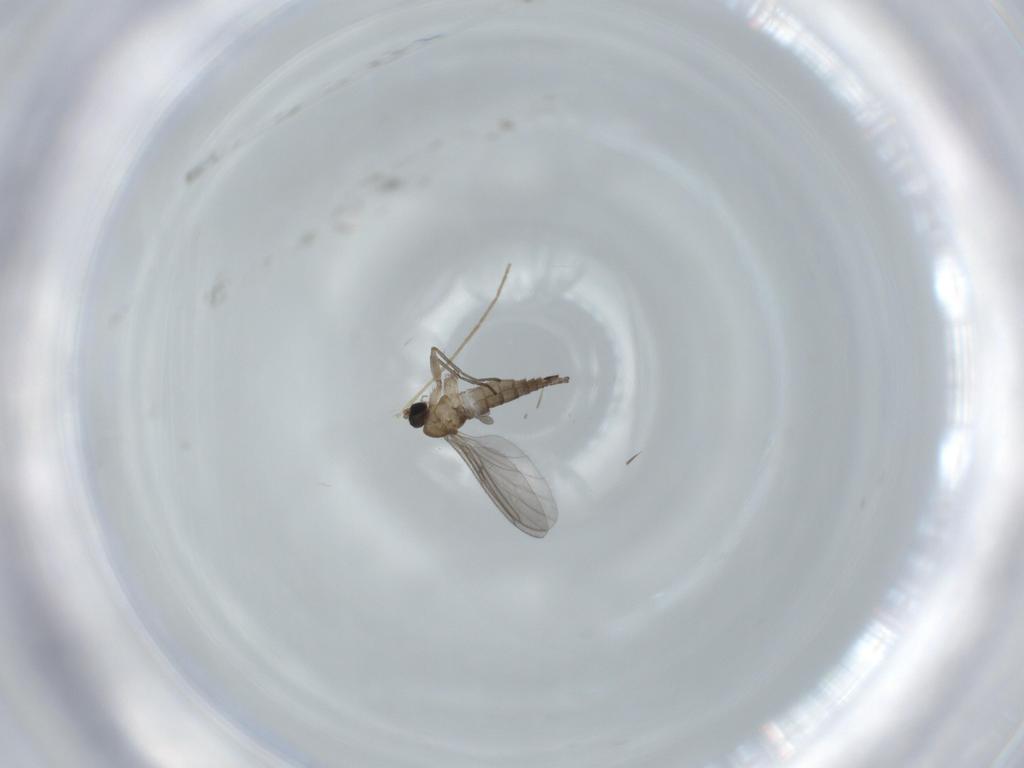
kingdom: Animalia
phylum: Arthropoda
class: Insecta
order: Diptera
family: Sciaridae
